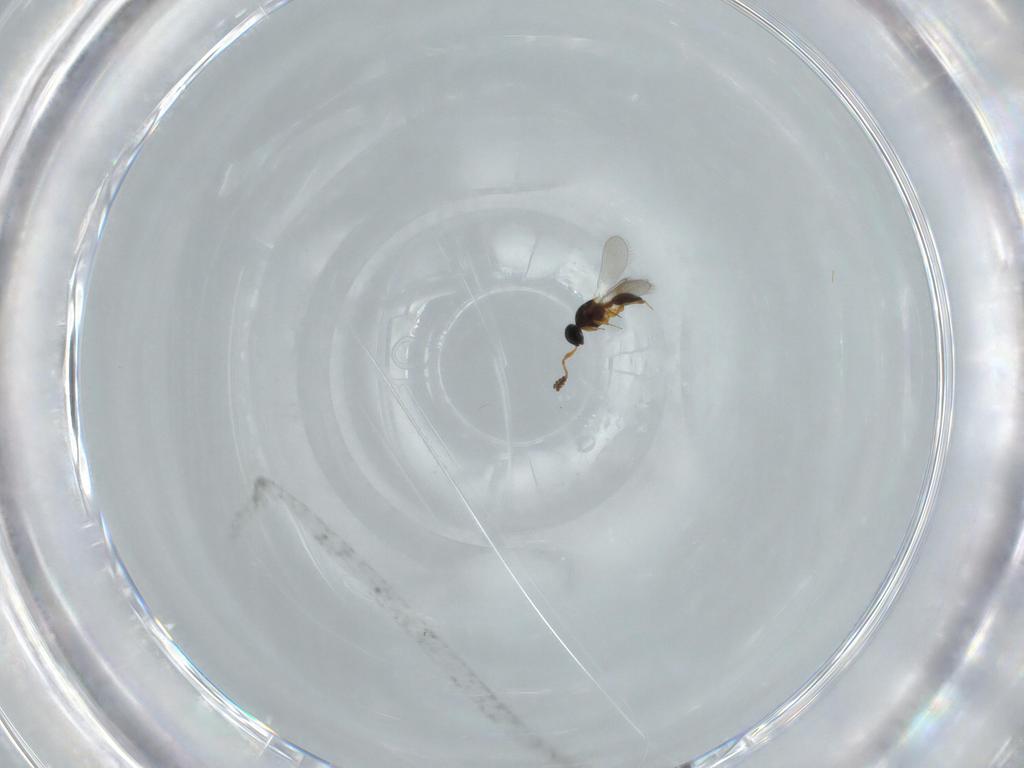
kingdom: Animalia
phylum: Arthropoda
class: Insecta
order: Hymenoptera
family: Platygastridae
